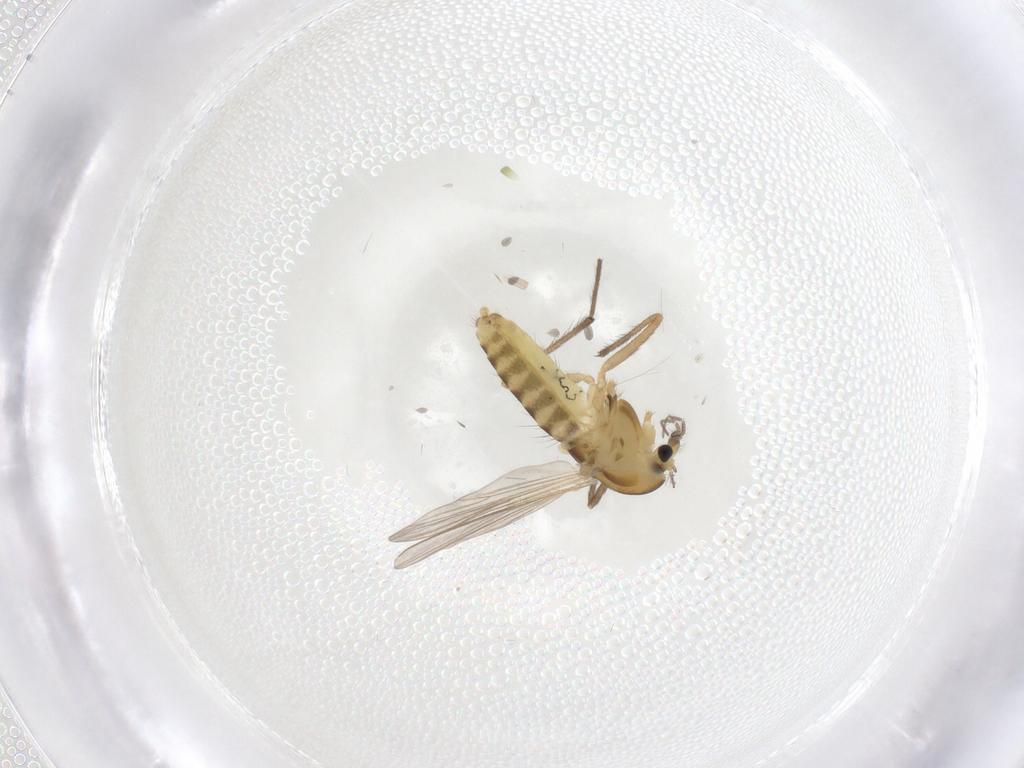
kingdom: Animalia
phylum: Arthropoda
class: Insecta
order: Diptera
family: Chironomidae
